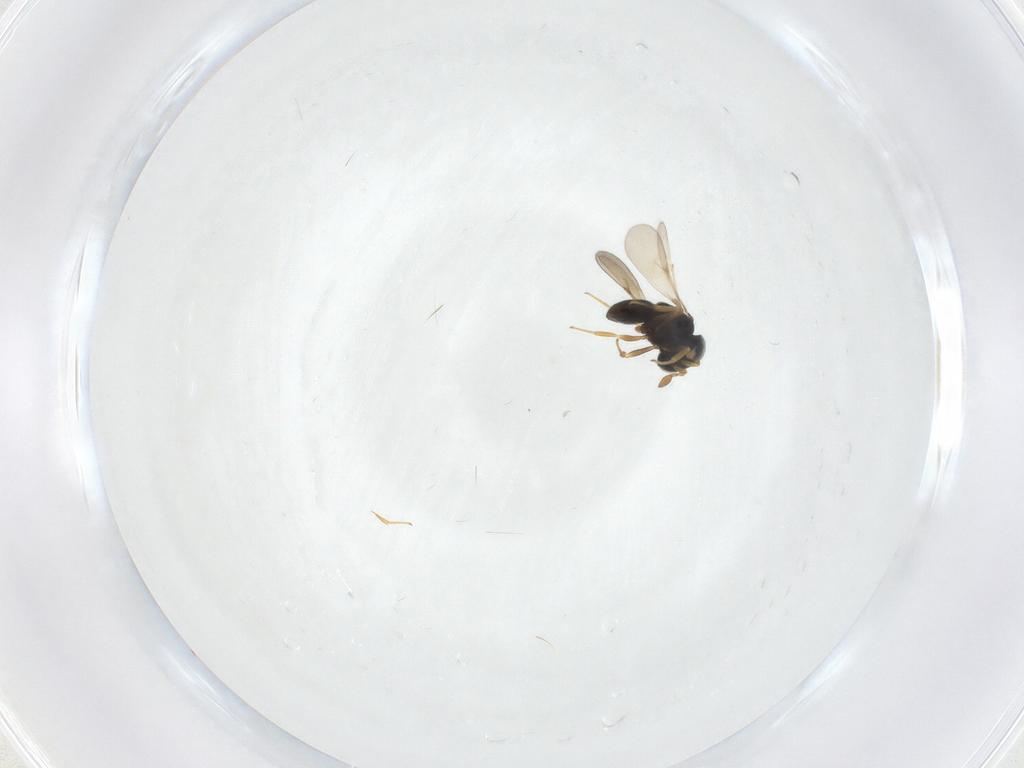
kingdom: Animalia
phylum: Arthropoda
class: Insecta
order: Hymenoptera
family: Scelionidae
